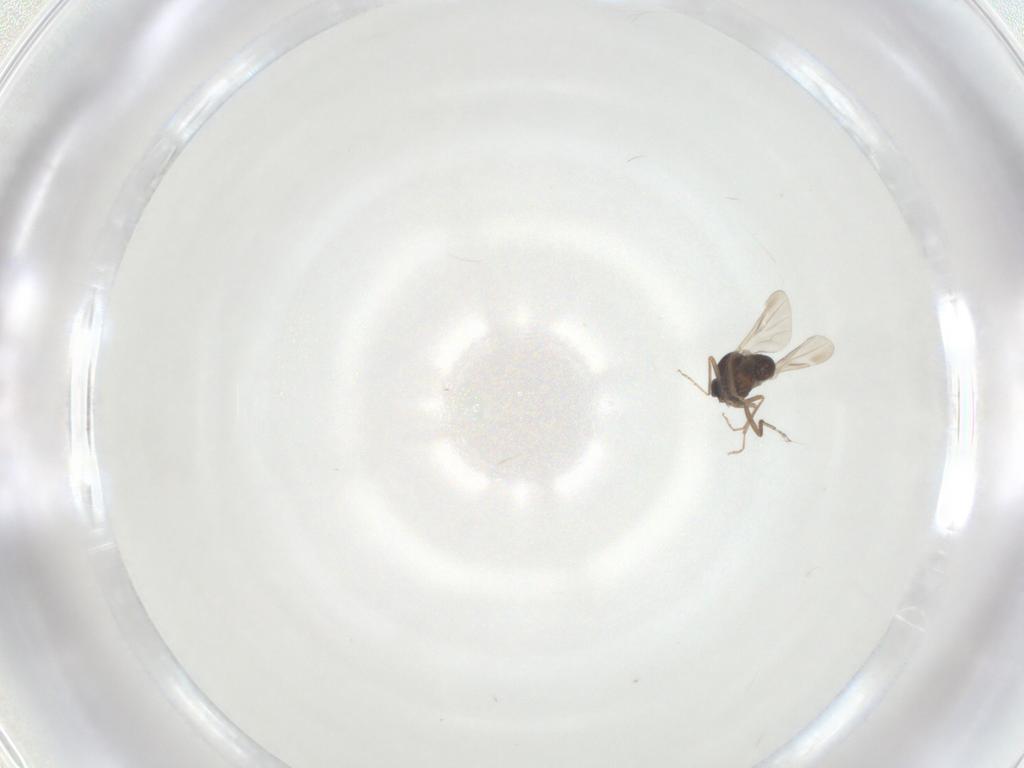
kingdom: Animalia
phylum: Arthropoda
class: Insecta
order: Diptera
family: Ceratopogonidae
